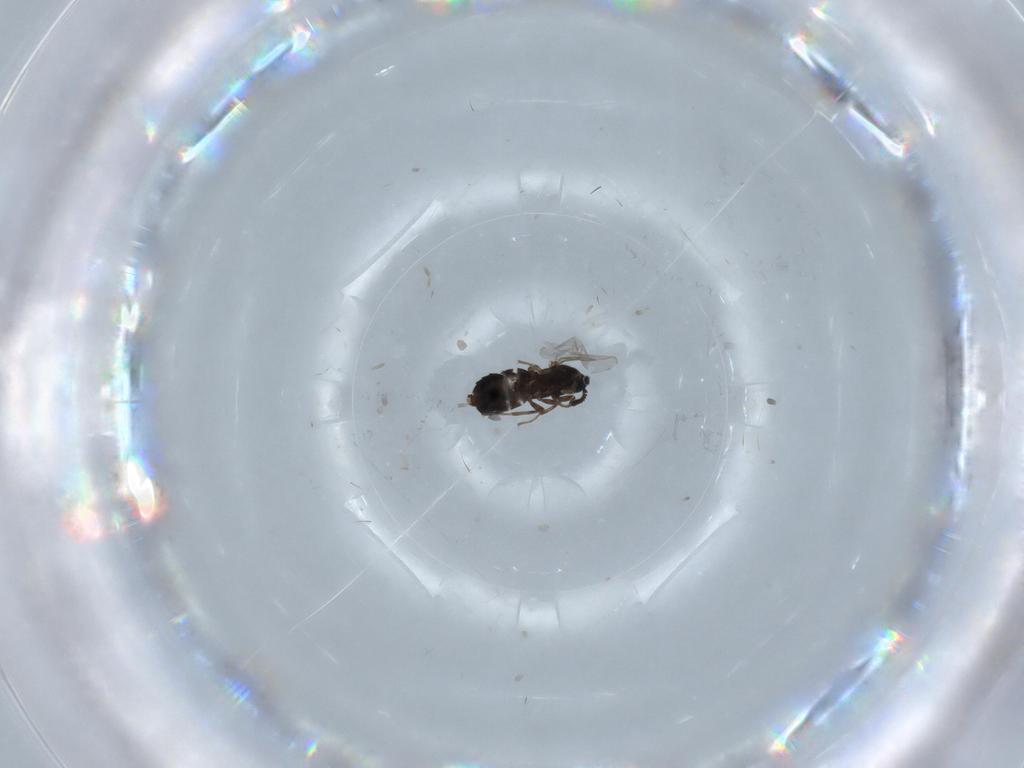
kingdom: Animalia
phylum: Arthropoda
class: Insecta
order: Diptera
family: Scatopsidae
